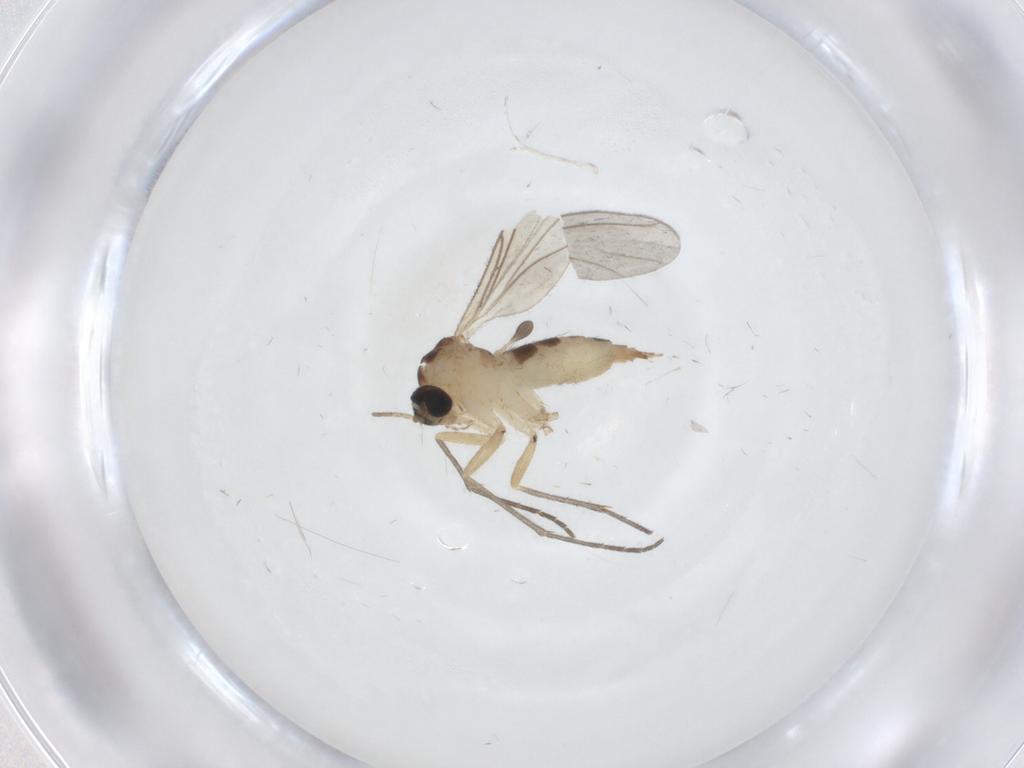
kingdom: Animalia
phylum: Arthropoda
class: Insecta
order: Diptera
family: Sciaridae
